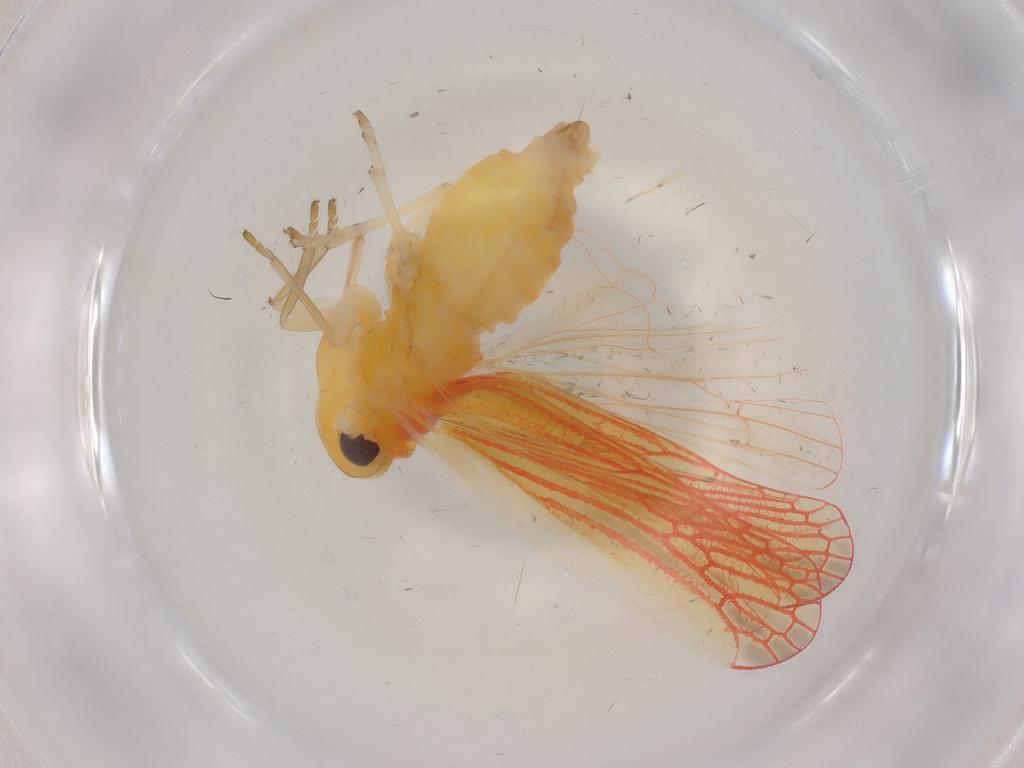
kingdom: Animalia
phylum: Arthropoda
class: Insecta
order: Hemiptera
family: Derbidae
